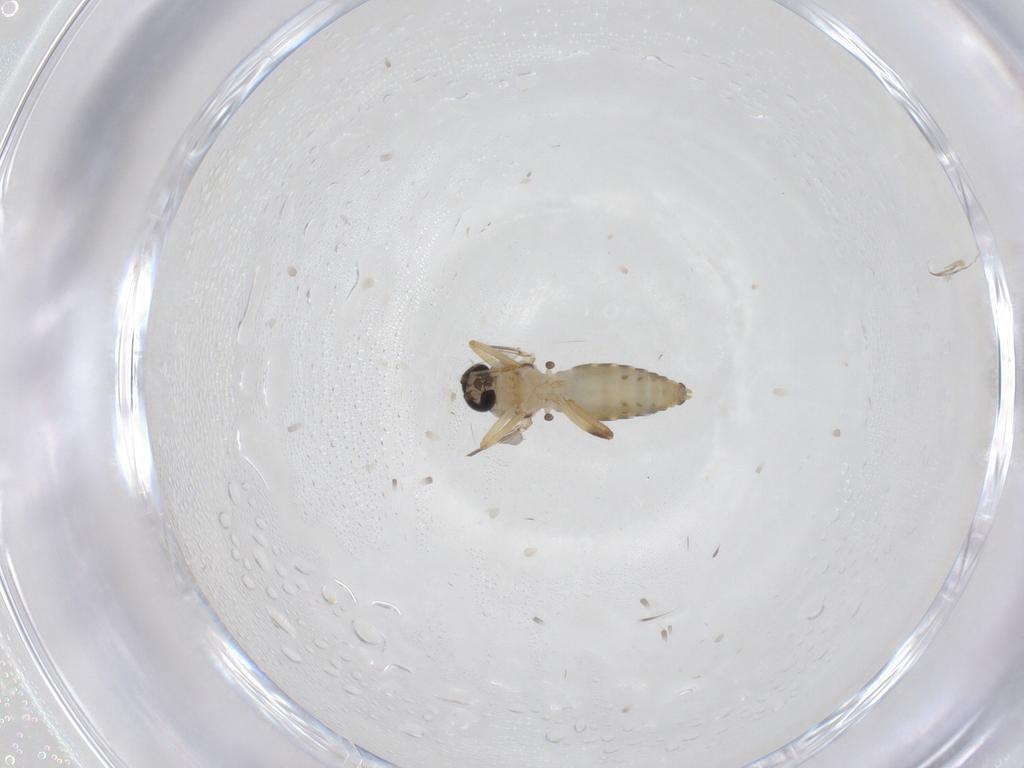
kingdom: Animalia
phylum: Arthropoda
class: Insecta
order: Diptera
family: Ceratopogonidae
